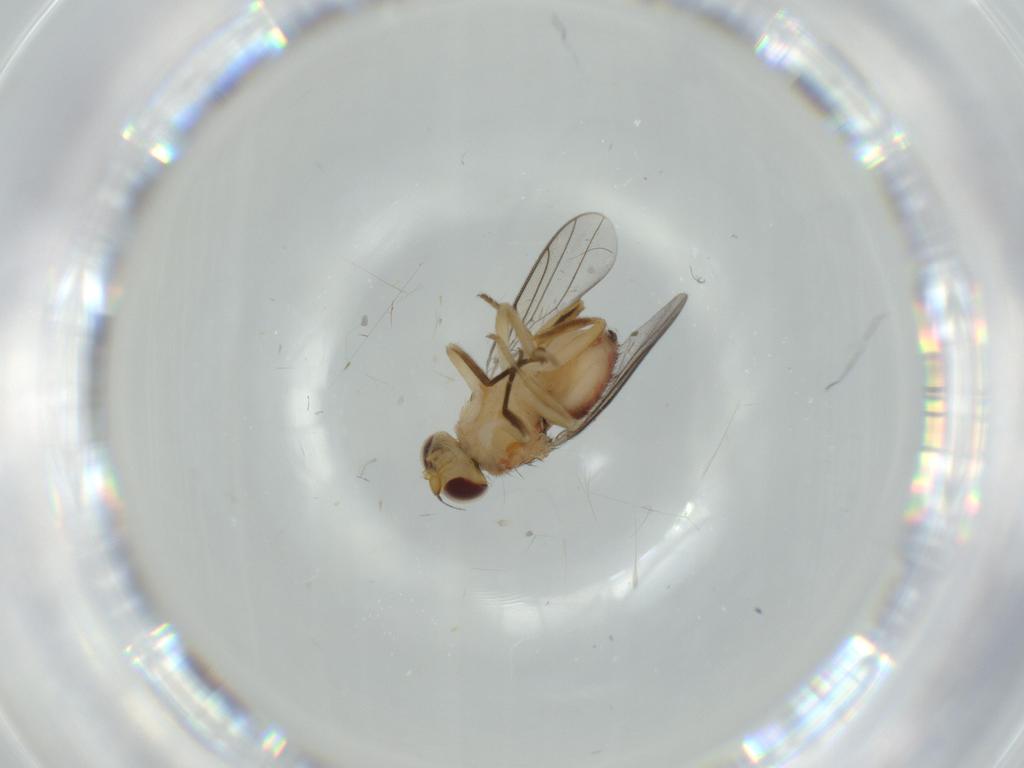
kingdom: Animalia
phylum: Arthropoda
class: Insecta
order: Diptera
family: Chloropidae
